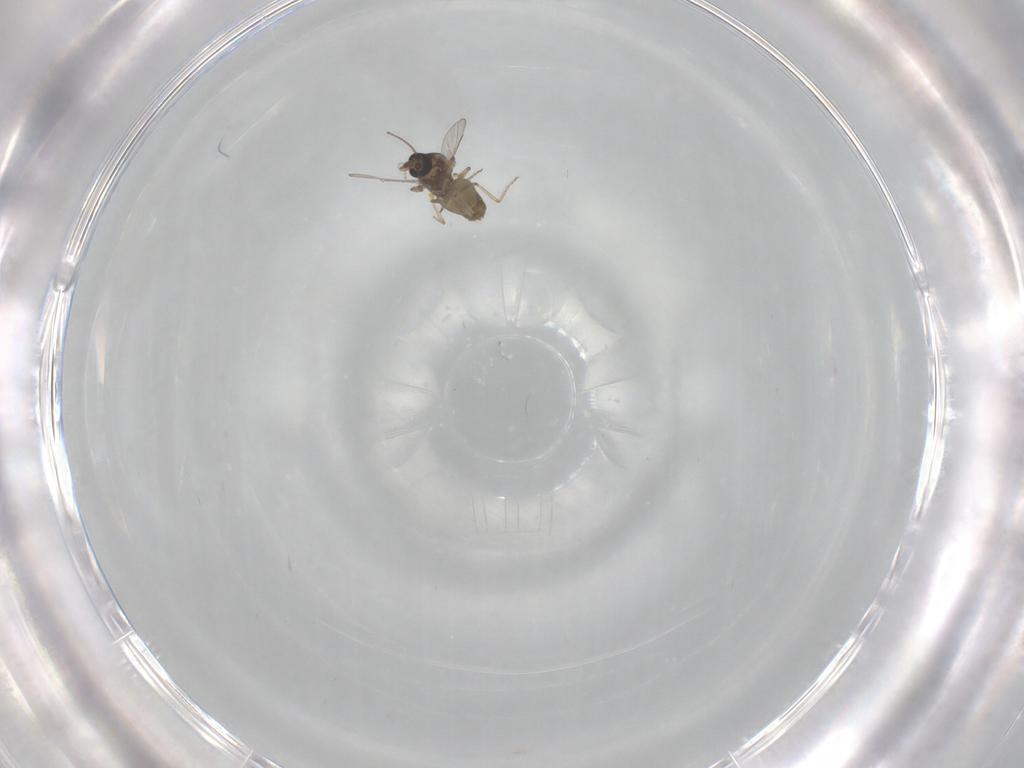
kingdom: Animalia
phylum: Arthropoda
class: Insecta
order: Diptera
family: Ceratopogonidae
